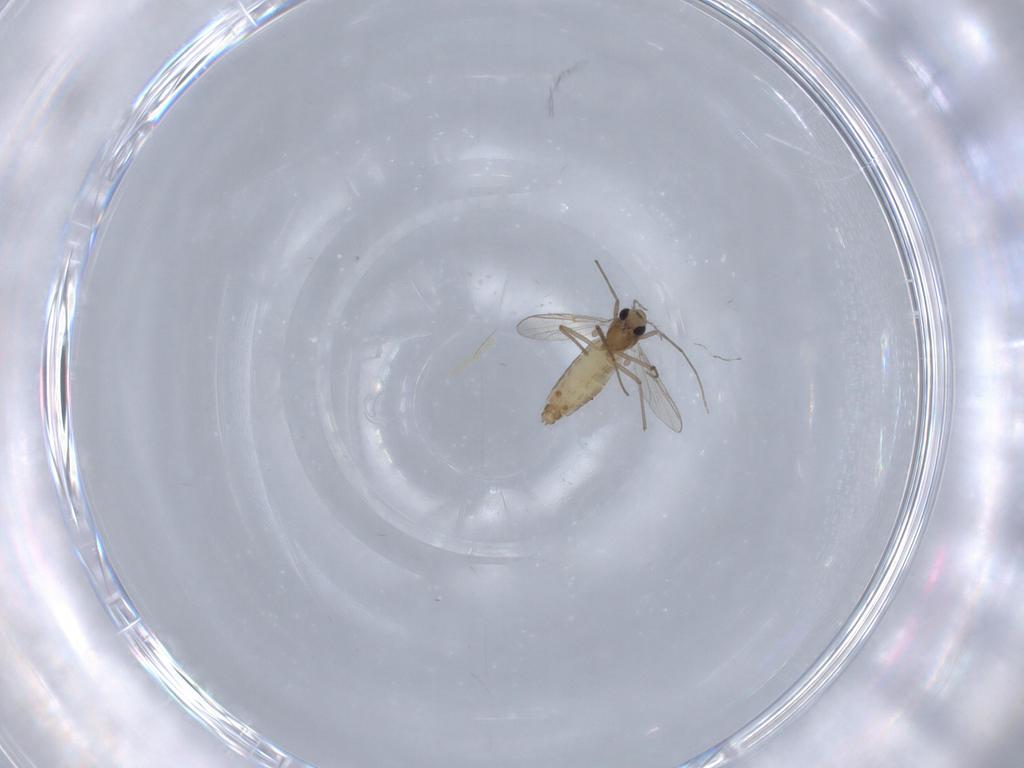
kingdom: Animalia
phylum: Arthropoda
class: Insecta
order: Diptera
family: Chironomidae
